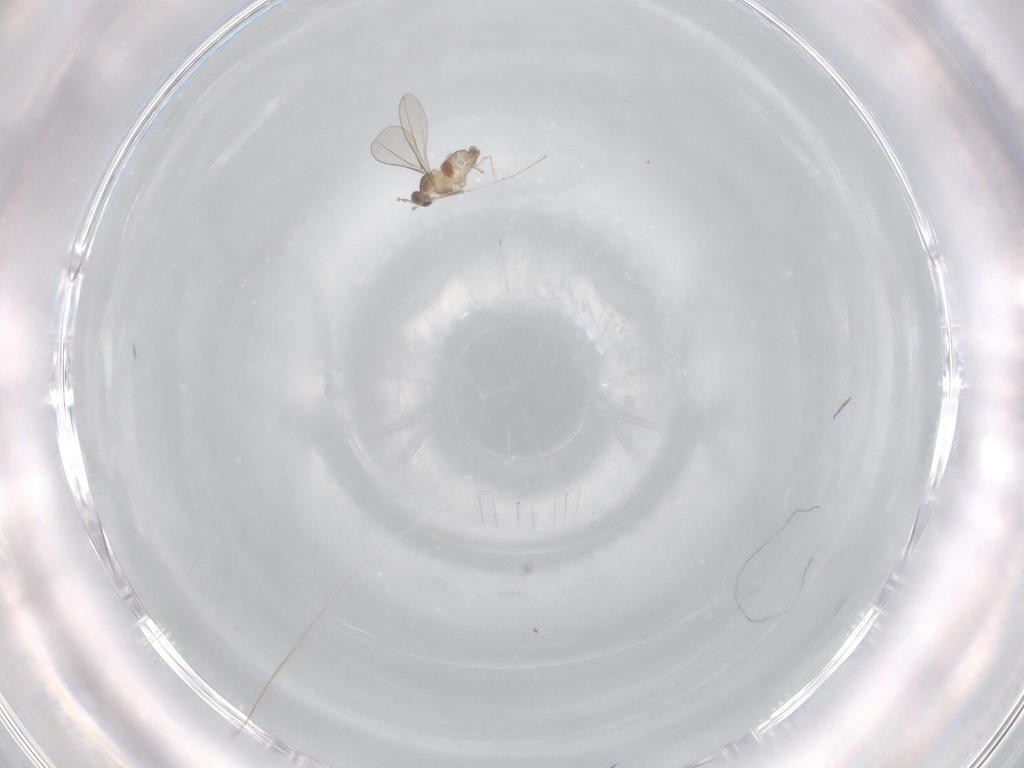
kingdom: Animalia
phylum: Arthropoda
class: Insecta
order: Diptera
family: Cecidomyiidae
